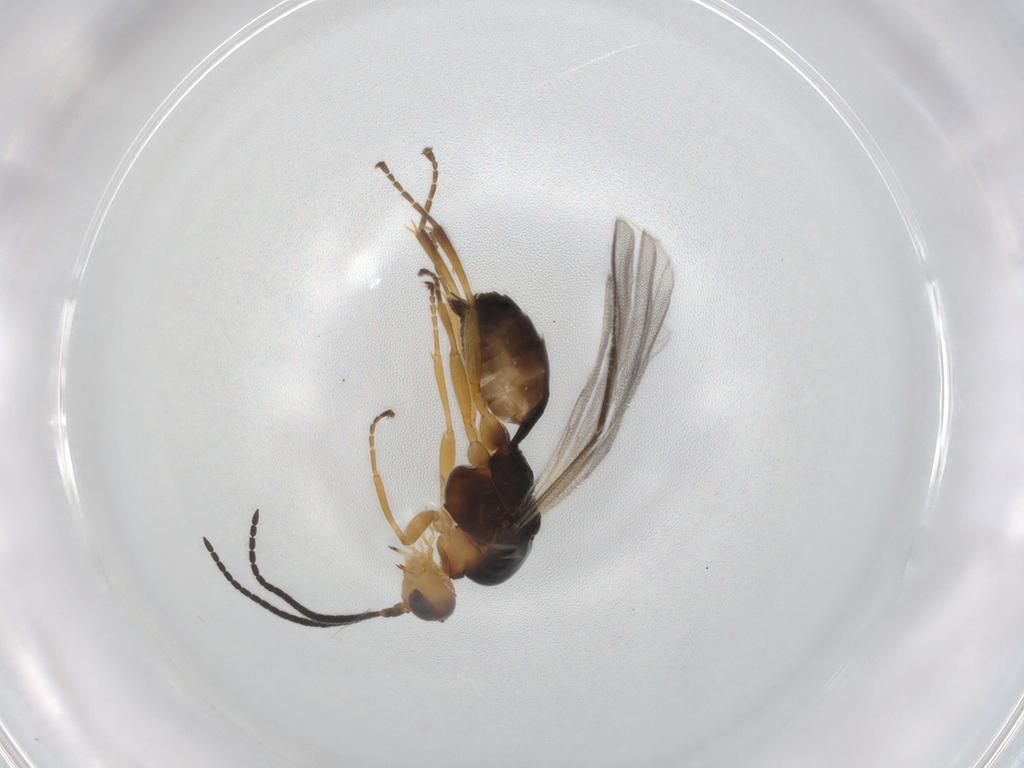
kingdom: Animalia
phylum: Arthropoda
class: Insecta
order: Hymenoptera
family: Braconidae
